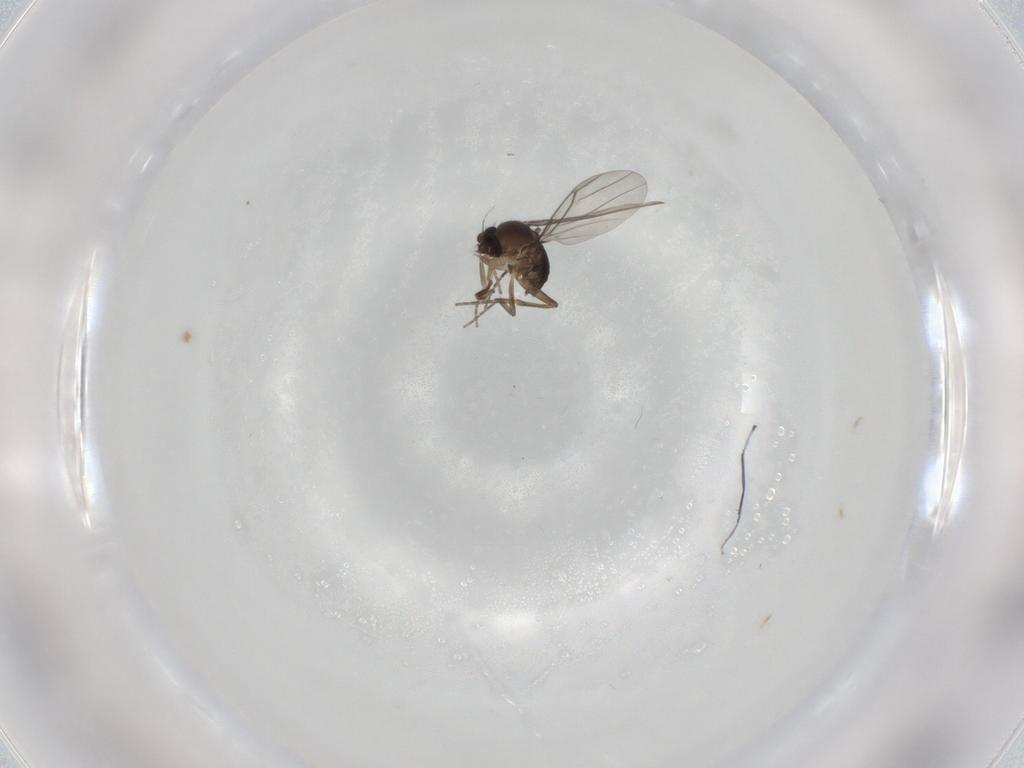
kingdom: Animalia
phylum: Arthropoda
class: Insecta
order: Diptera
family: Phoridae
